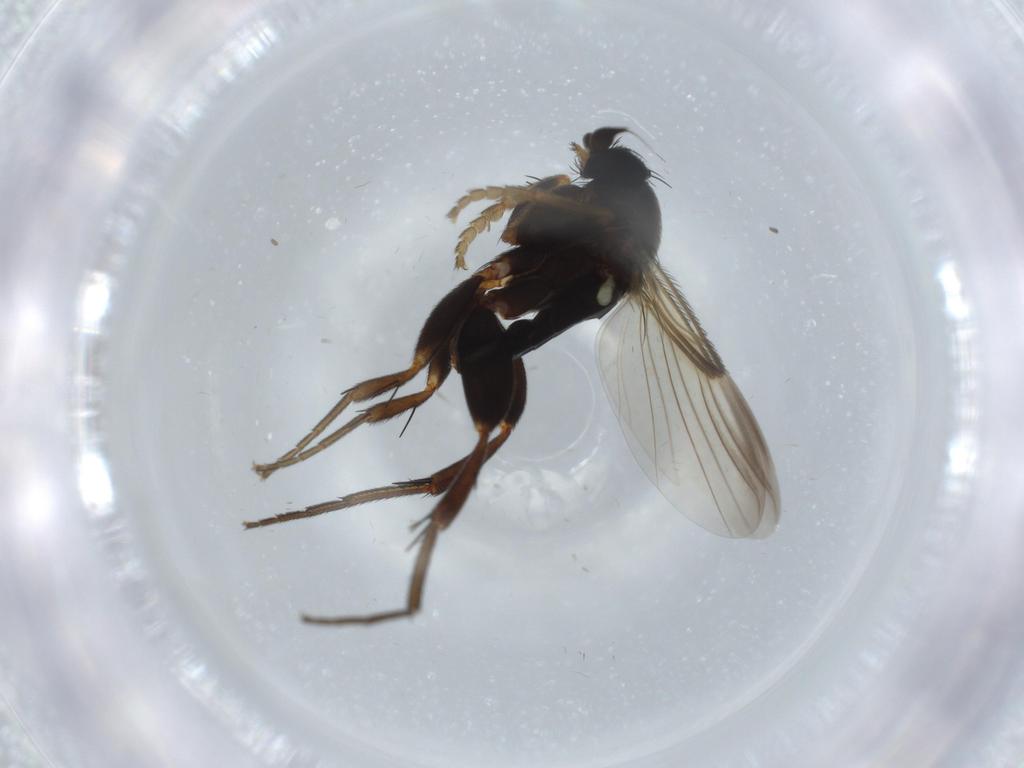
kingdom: Animalia
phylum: Arthropoda
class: Insecta
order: Diptera
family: Phoridae
